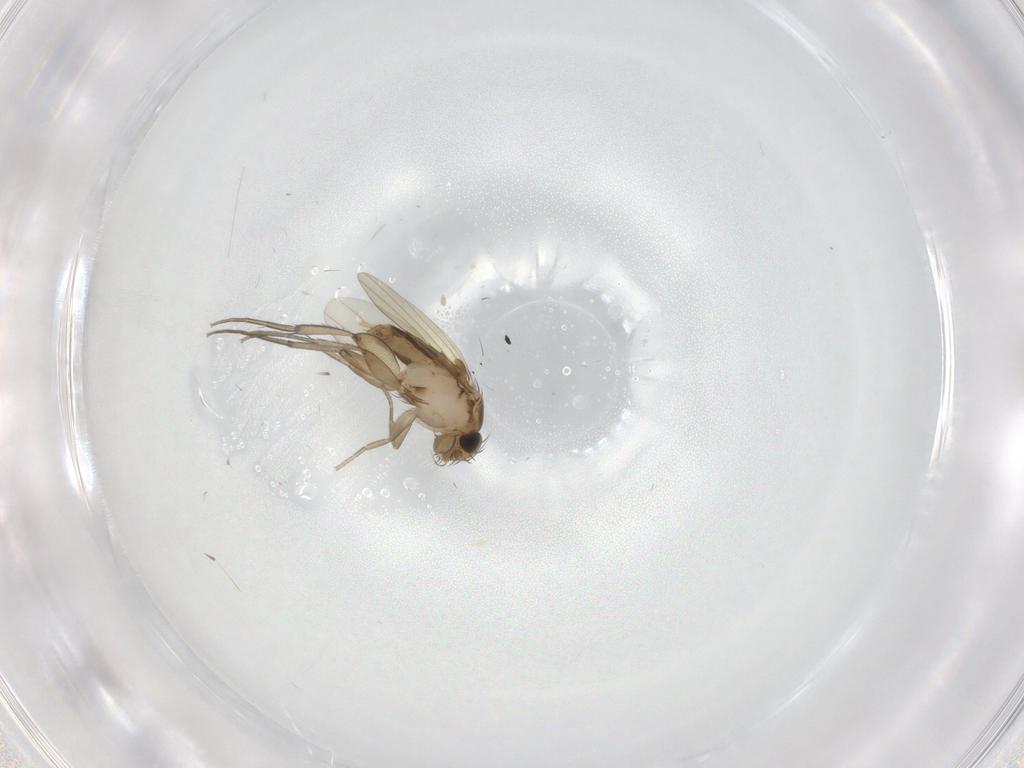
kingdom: Animalia
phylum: Arthropoda
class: Insecta
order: Diptera
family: Phoridae
